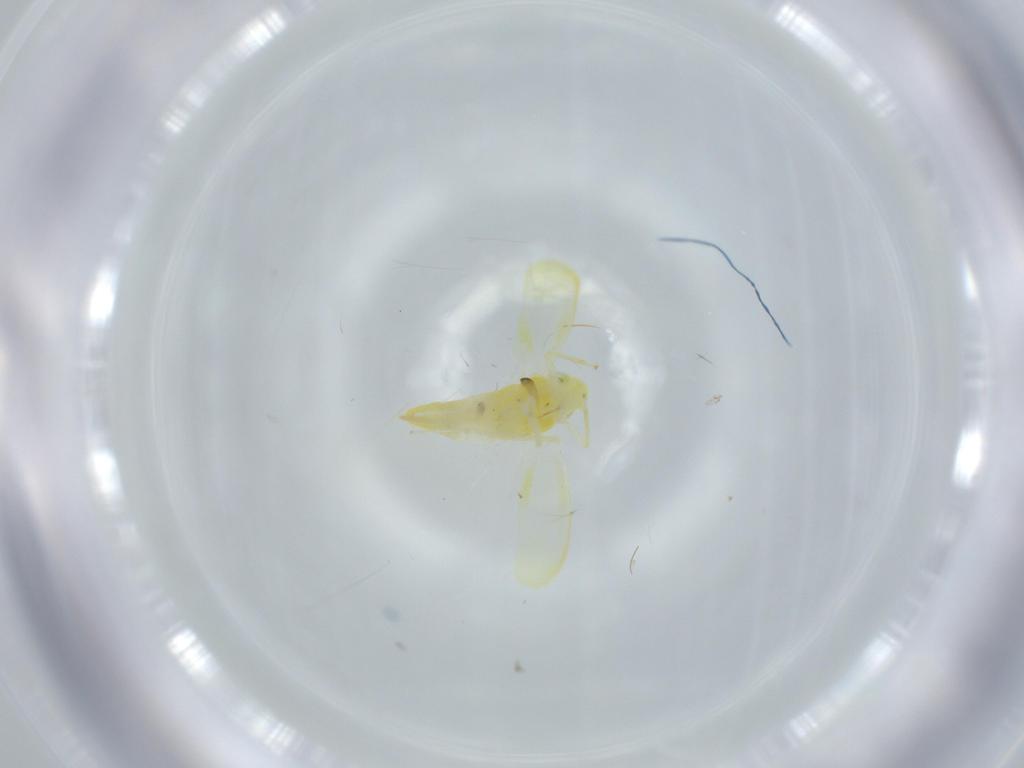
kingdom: Animalia
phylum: Arthropoda
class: Insecta
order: Hemiptera
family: Cicadellidae
